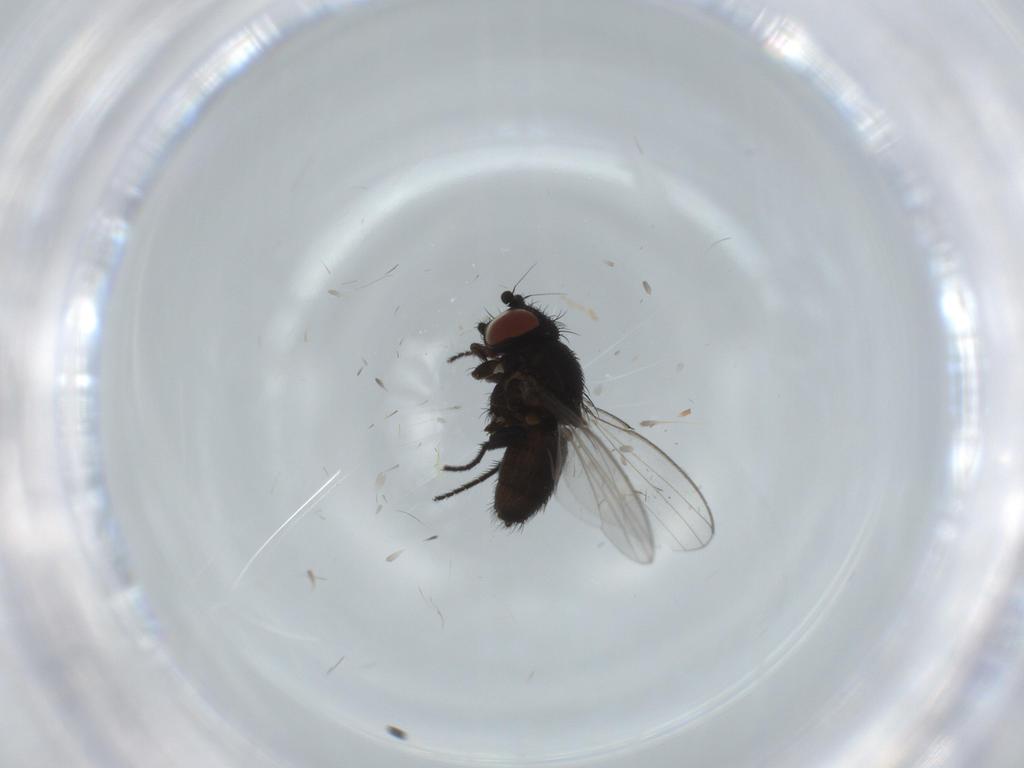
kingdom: Animalia
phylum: Arthropoda
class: Insecta
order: Diptera
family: Milichiidae
